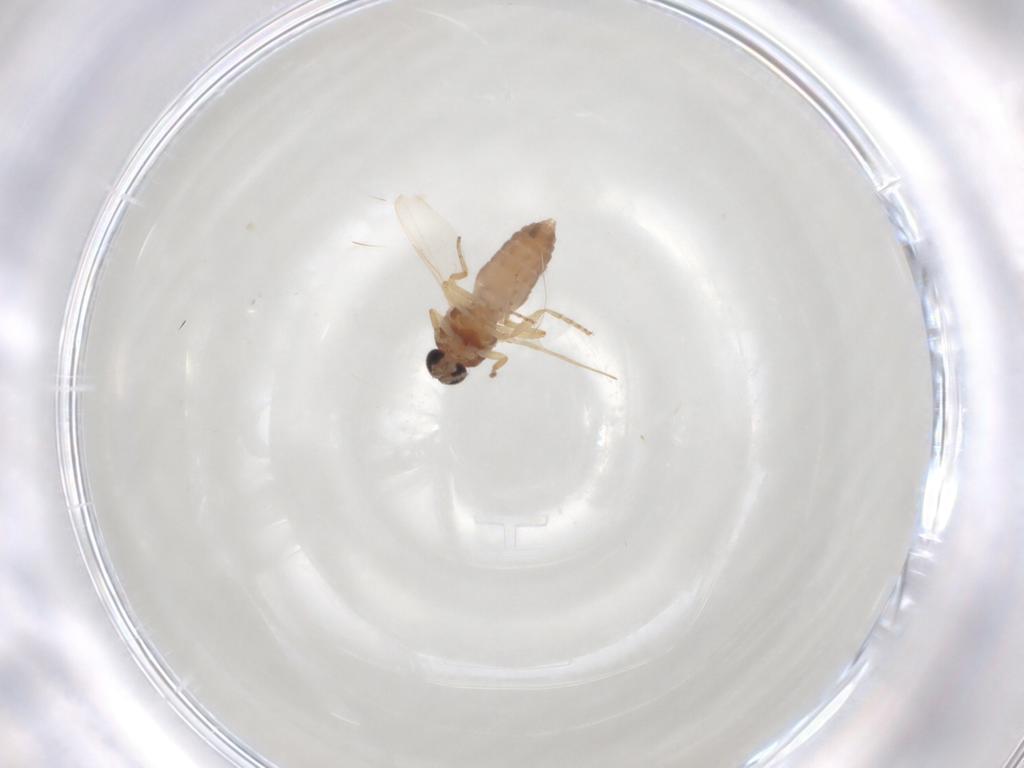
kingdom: Animalia
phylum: Arthropoda
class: Insecta
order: Diptera
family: Ceratopogonidae
